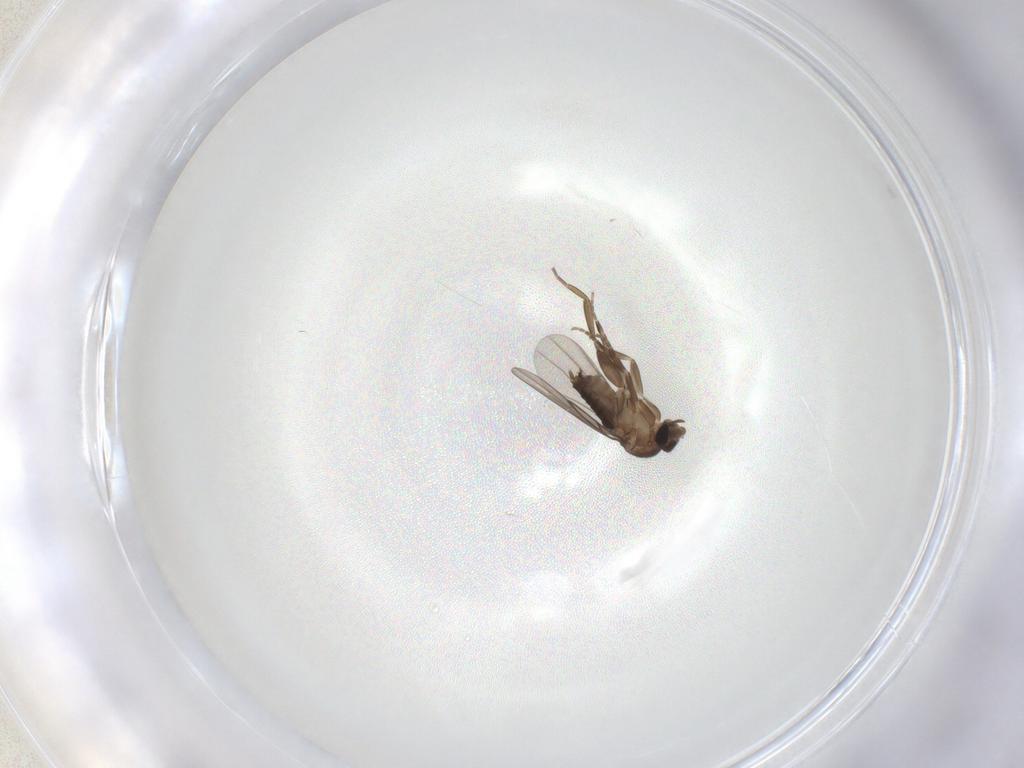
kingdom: Animalia
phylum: Arthropoda
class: Insecta
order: Diptera
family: Phoridae
